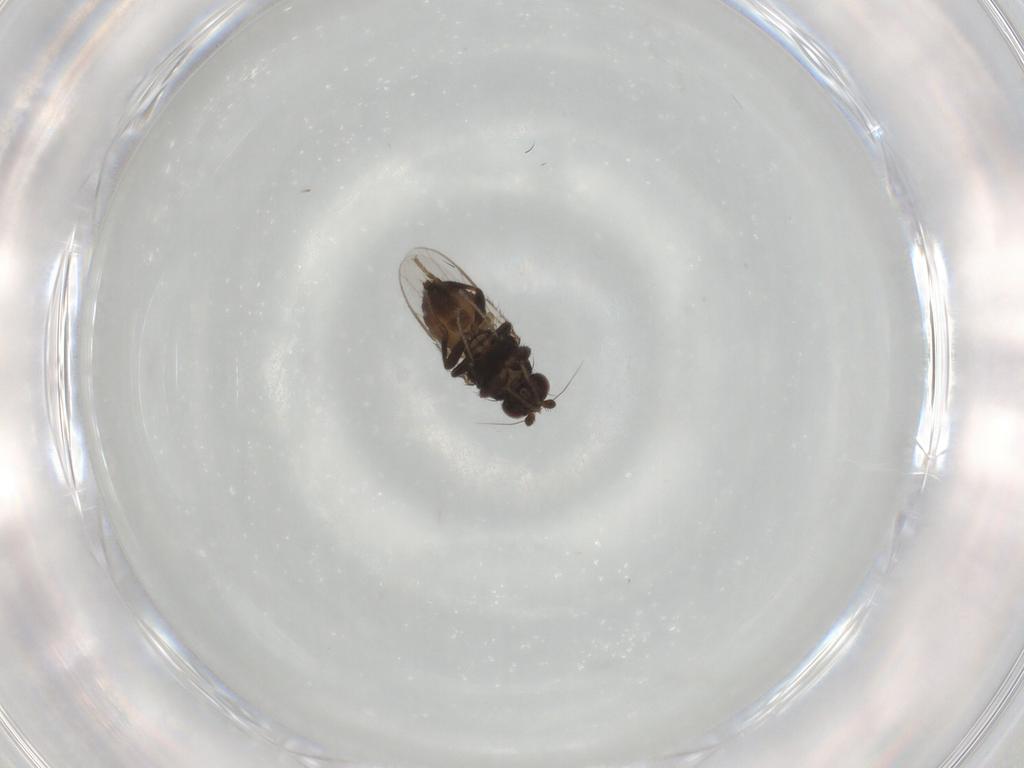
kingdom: Animalia
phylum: Arthropoda
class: Insecta
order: Diptera
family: Sphaeroceridae
